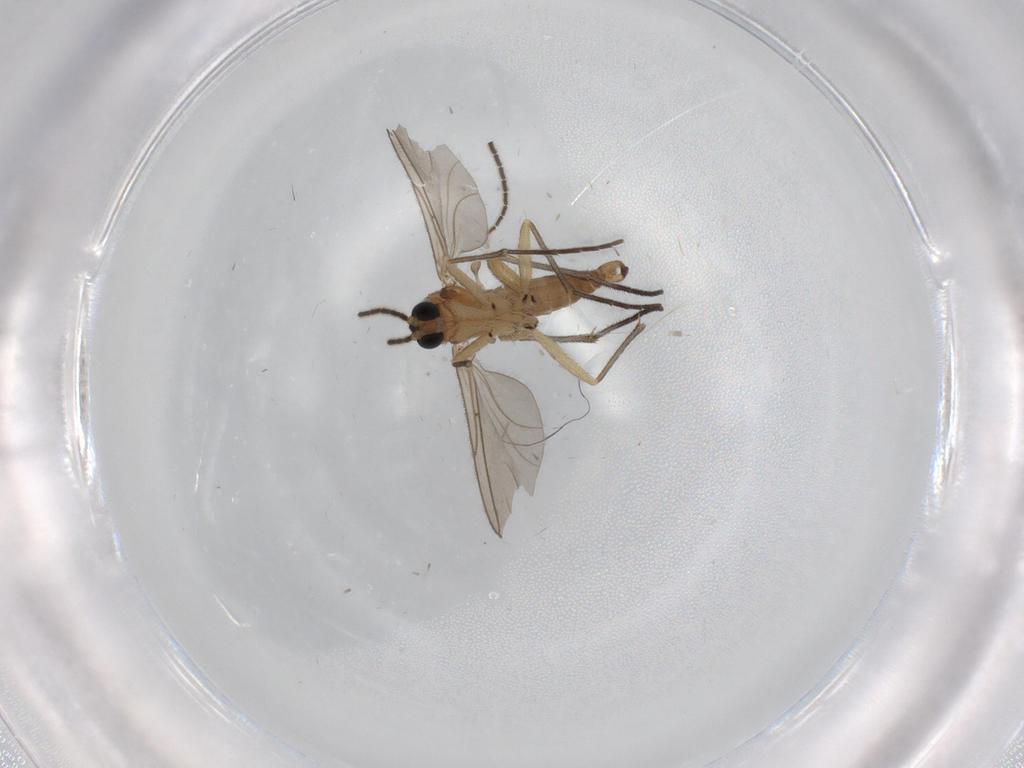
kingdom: Animalia
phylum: Arthropoda
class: Insecta
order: Diptera
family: Sciaridae
